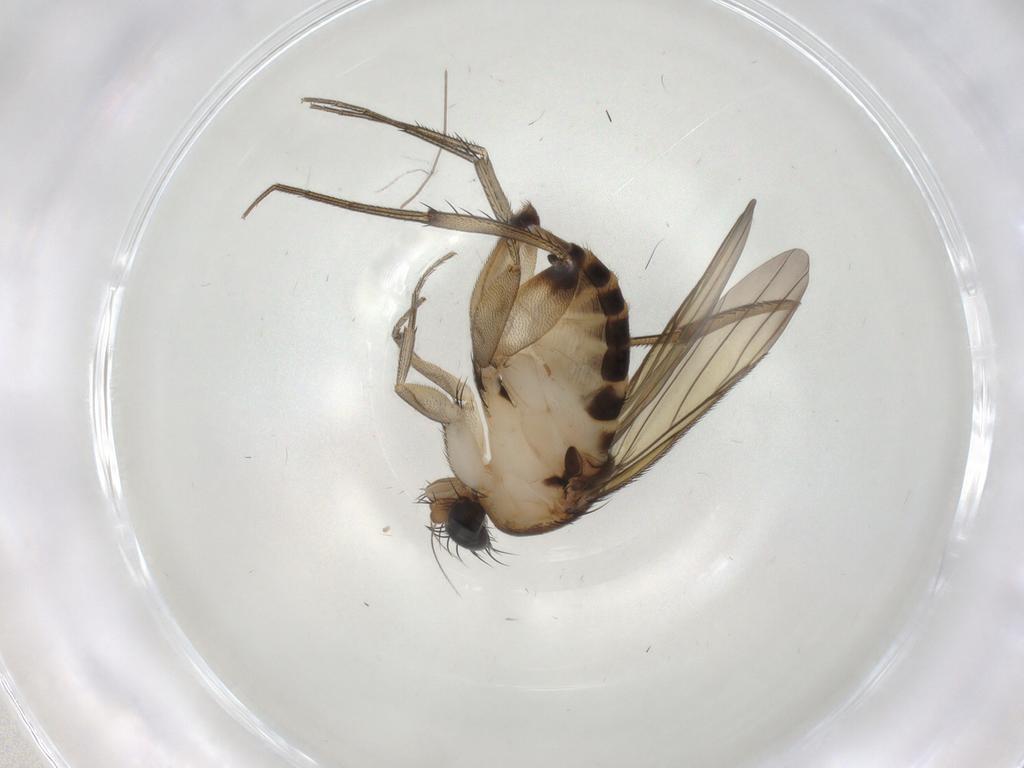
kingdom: Animalia
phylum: Arthropoda
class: Insecta
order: Diptera
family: Phoridae
